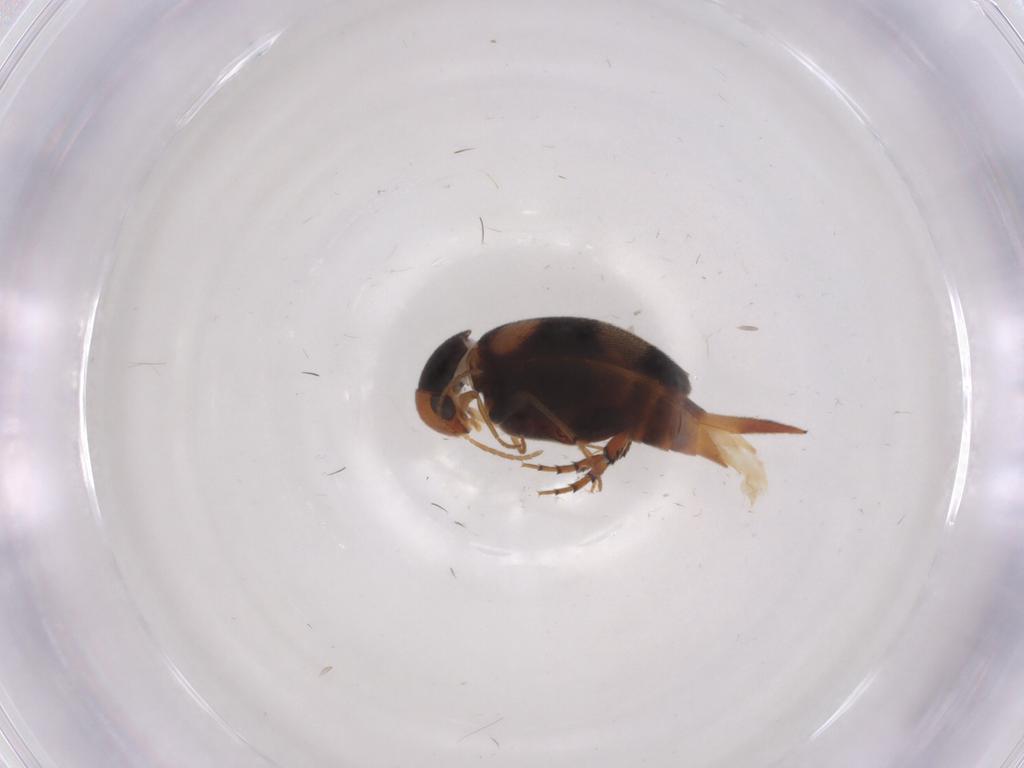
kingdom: Animalia
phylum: Arthropoda
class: Insecta
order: Coleoptera
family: Mordellidae
